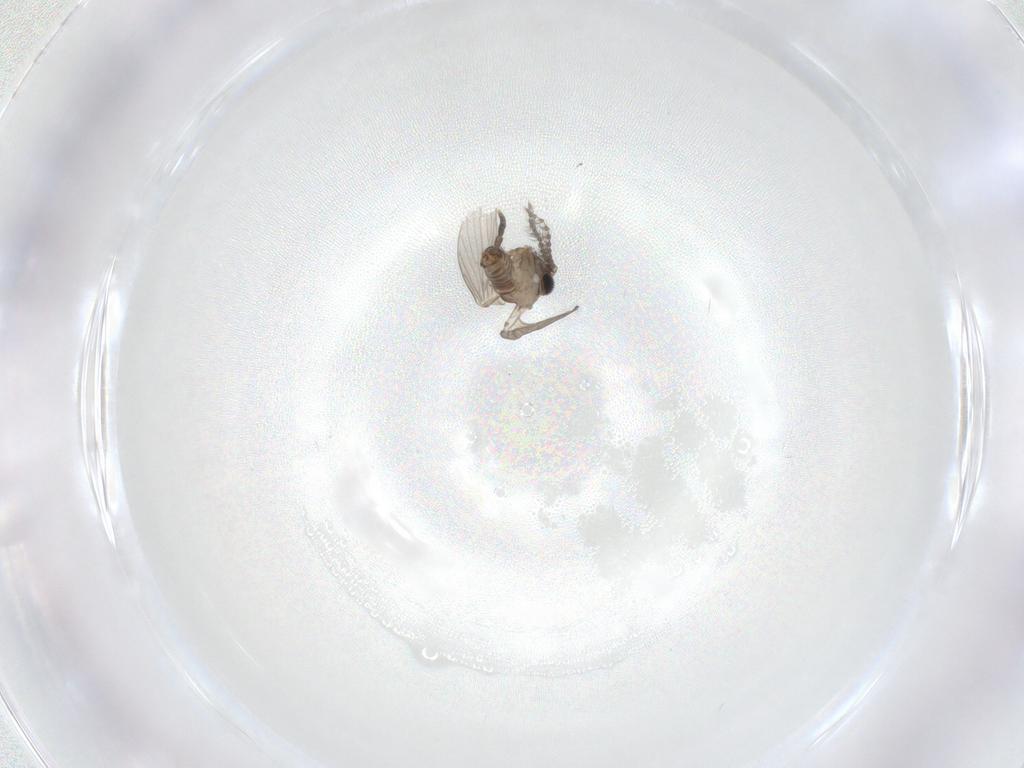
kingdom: Animalia
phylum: Arthropoda
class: Insecta
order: Diptera
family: Psychodidae
